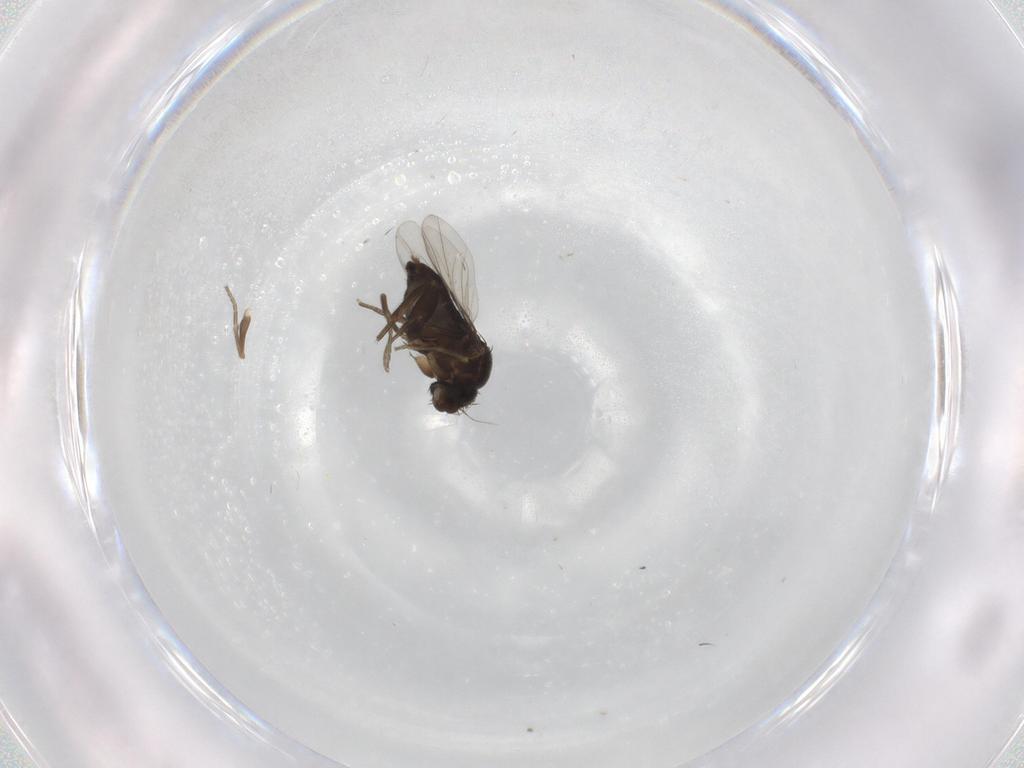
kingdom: Animalia
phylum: Arthropoda
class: Insecta
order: Diptera
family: Phoridae
